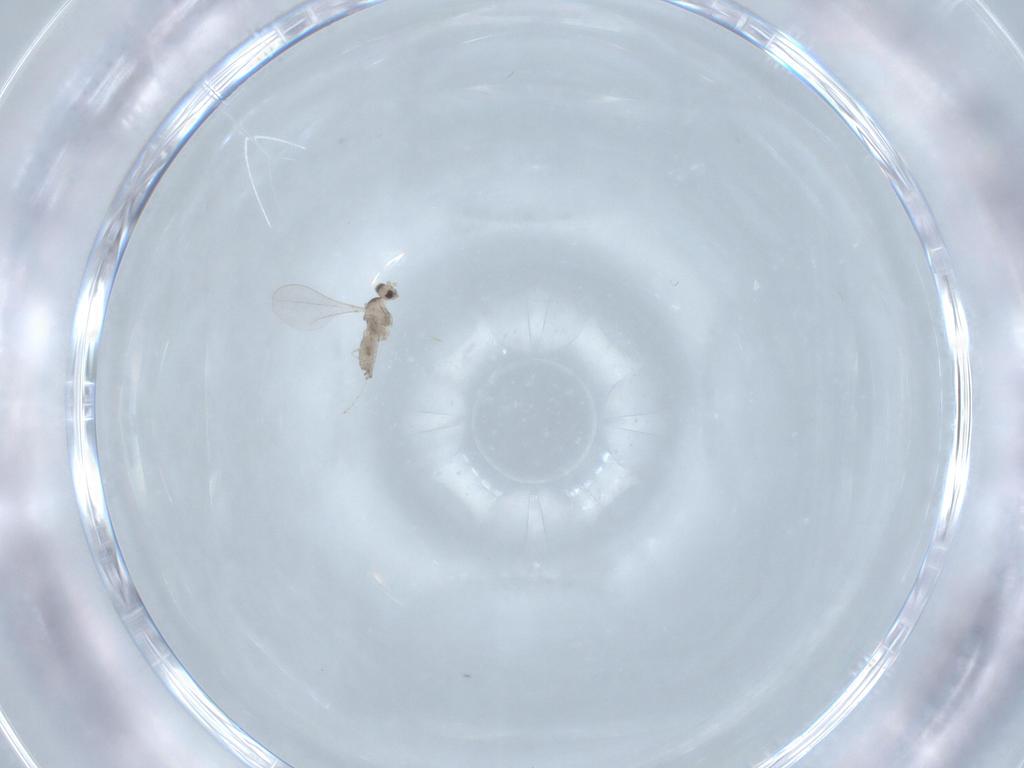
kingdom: Animalia
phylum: Arthropoda
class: Insecta
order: Diptera
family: Cecidomyiidae
